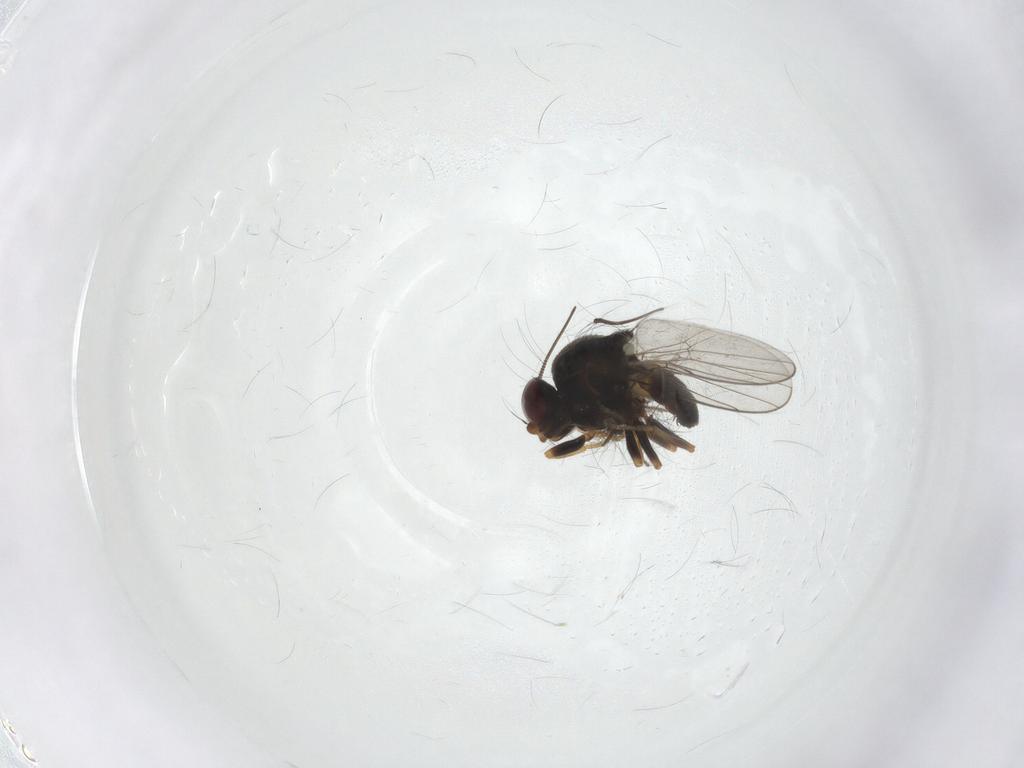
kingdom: Animalia
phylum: Arthropoda
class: Insecta
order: Diptera
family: Chloropidae
